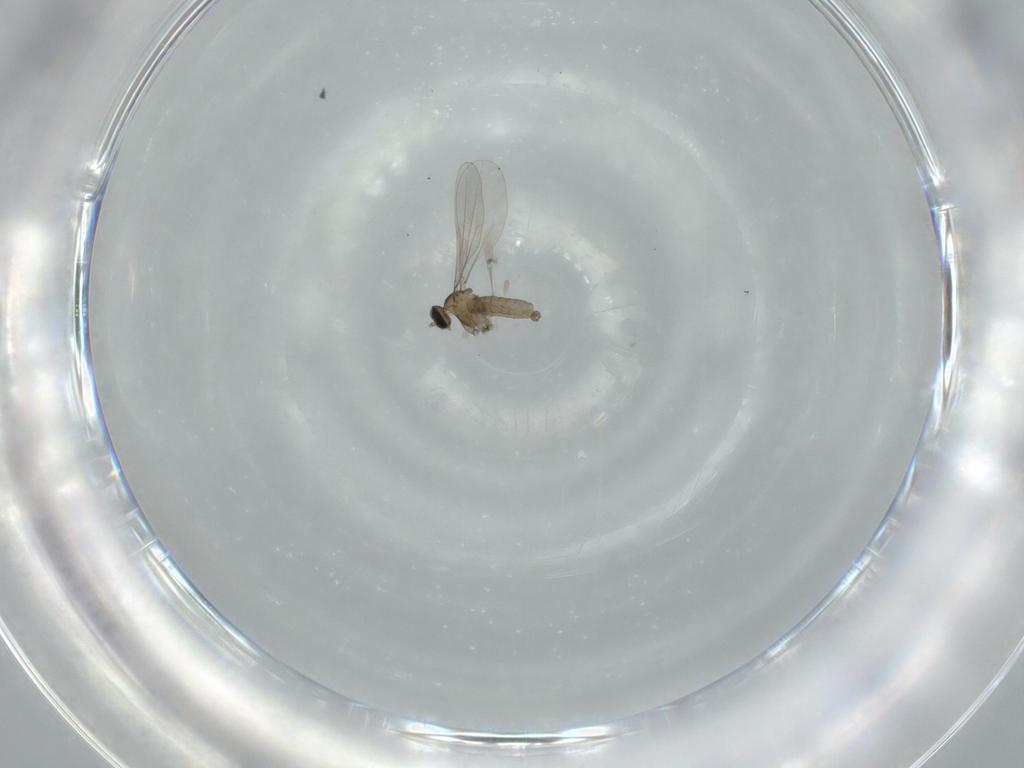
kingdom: Animalia
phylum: Arthropoda
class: Insecta
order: Diptera
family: Cecidomyiidae
